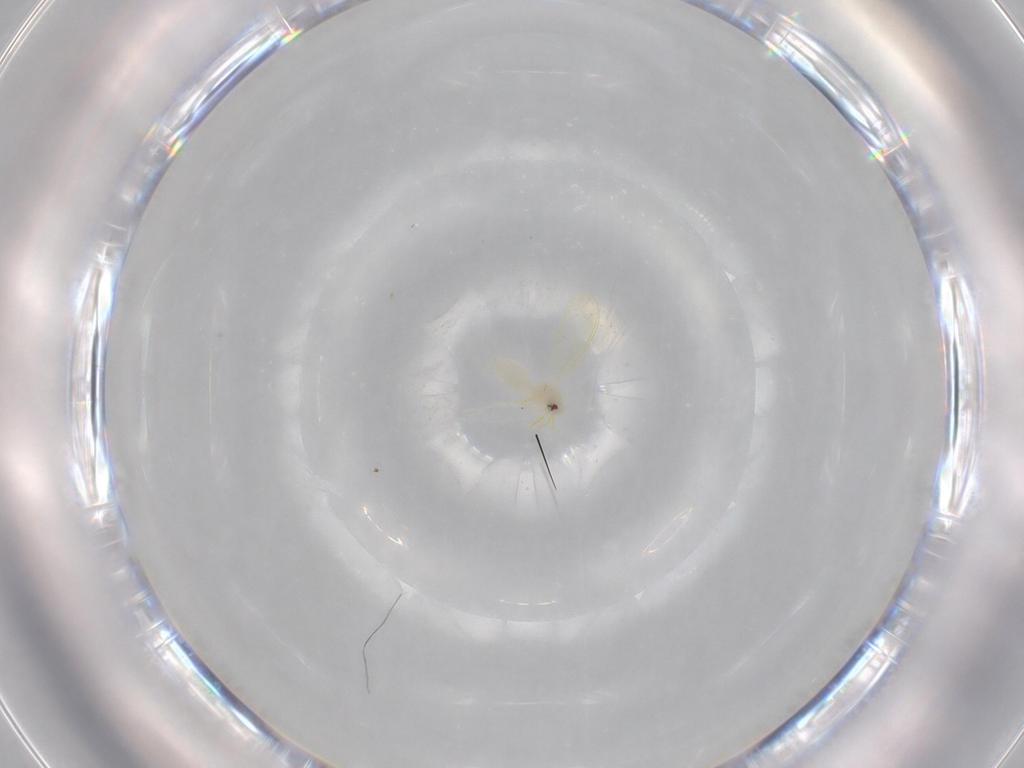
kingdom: Animalia
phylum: Arthropoda
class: Insecta
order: Hemiptera
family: Aleyrodidae
